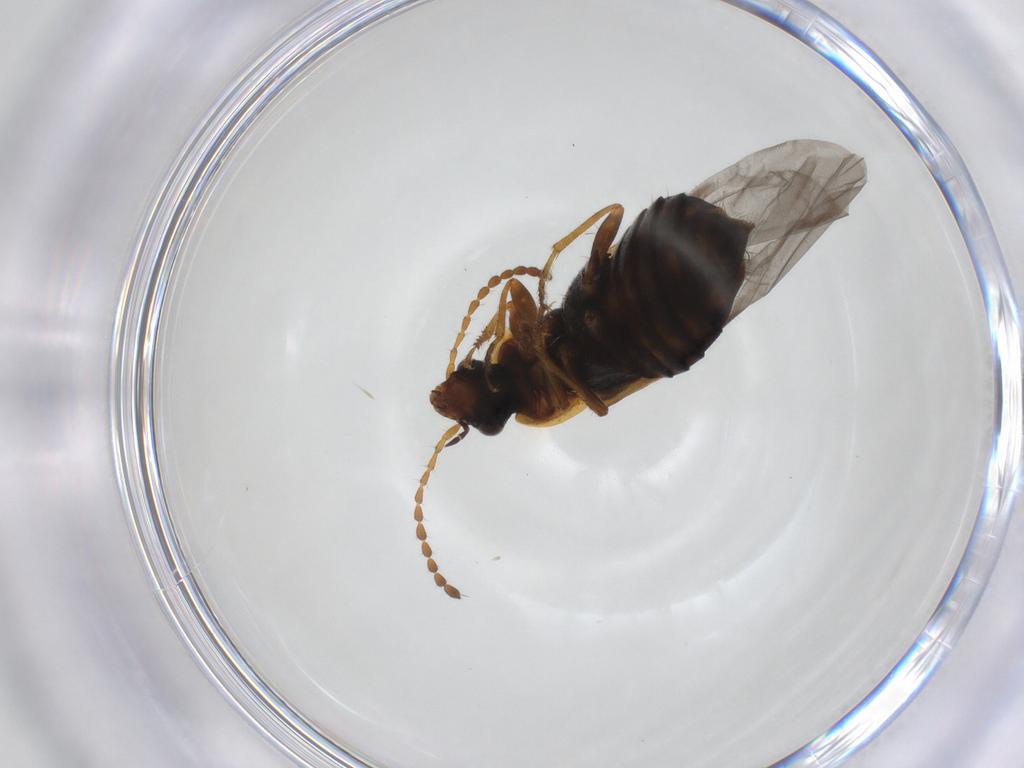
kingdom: Animalia
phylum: Arthropoda
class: Insecta
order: Coleoptera
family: Staphylinidae
